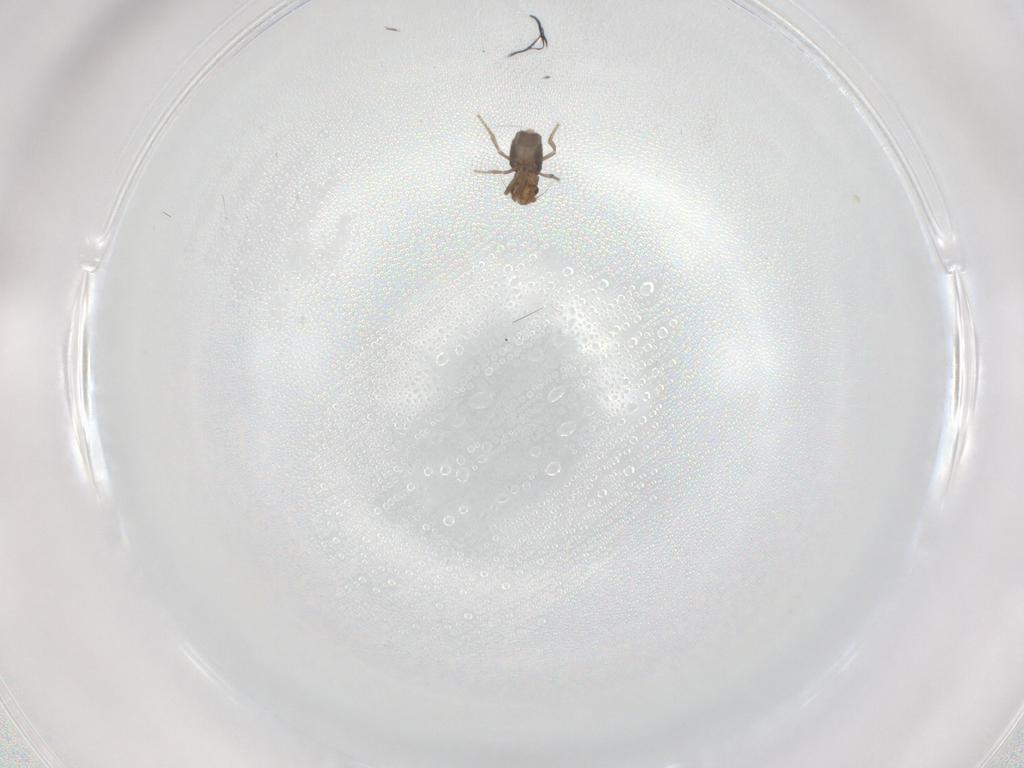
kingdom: Animalia
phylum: Arthropoda
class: Insecta
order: Diptera
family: Phoridae
